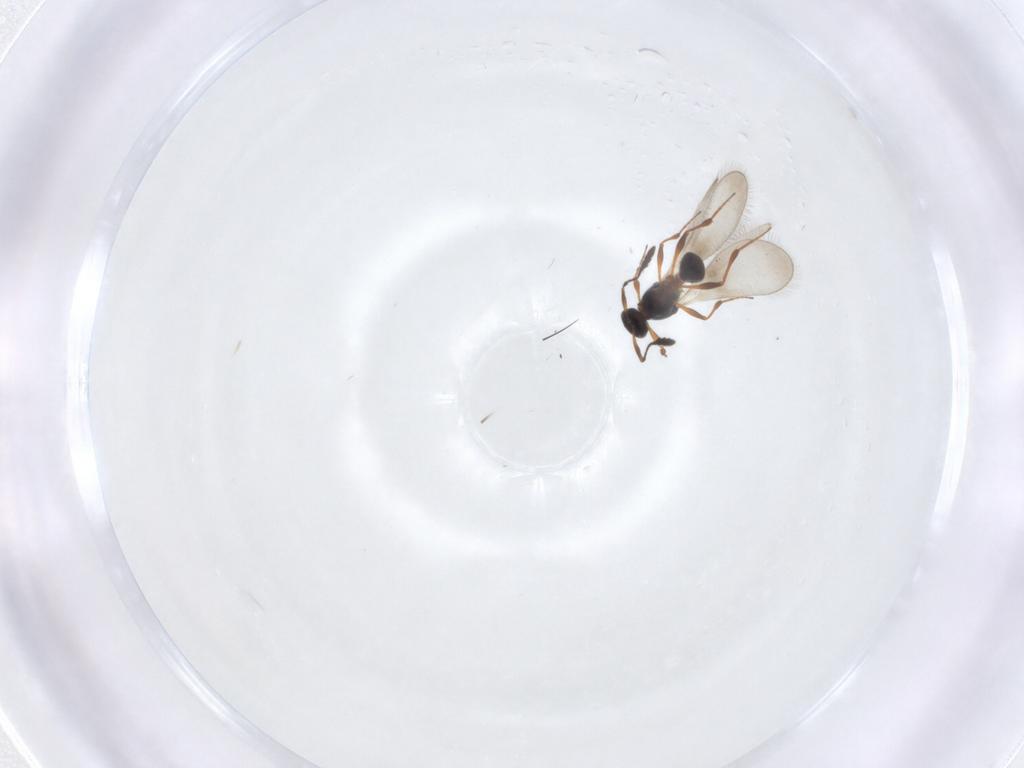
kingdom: Animalia
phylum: Arthropoda
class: Insecta
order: Hymenoptera
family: Platygastridae
